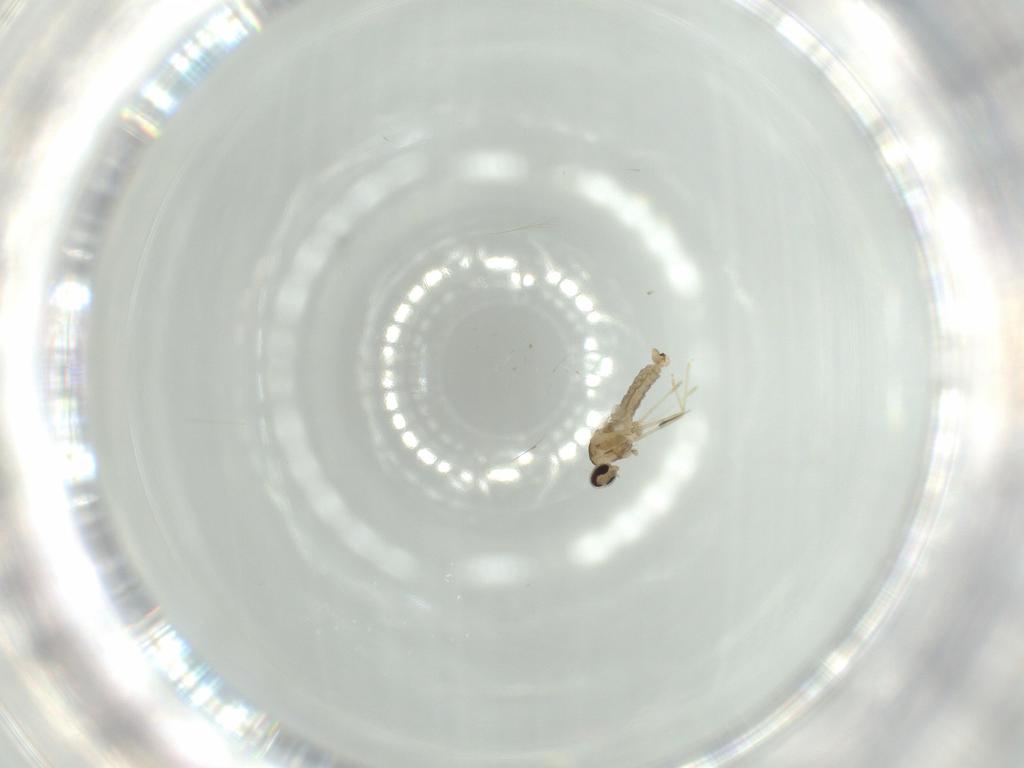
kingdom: Animalia
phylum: Arthropoda
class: Insecta
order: Diptera
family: Cecidomyiidae
